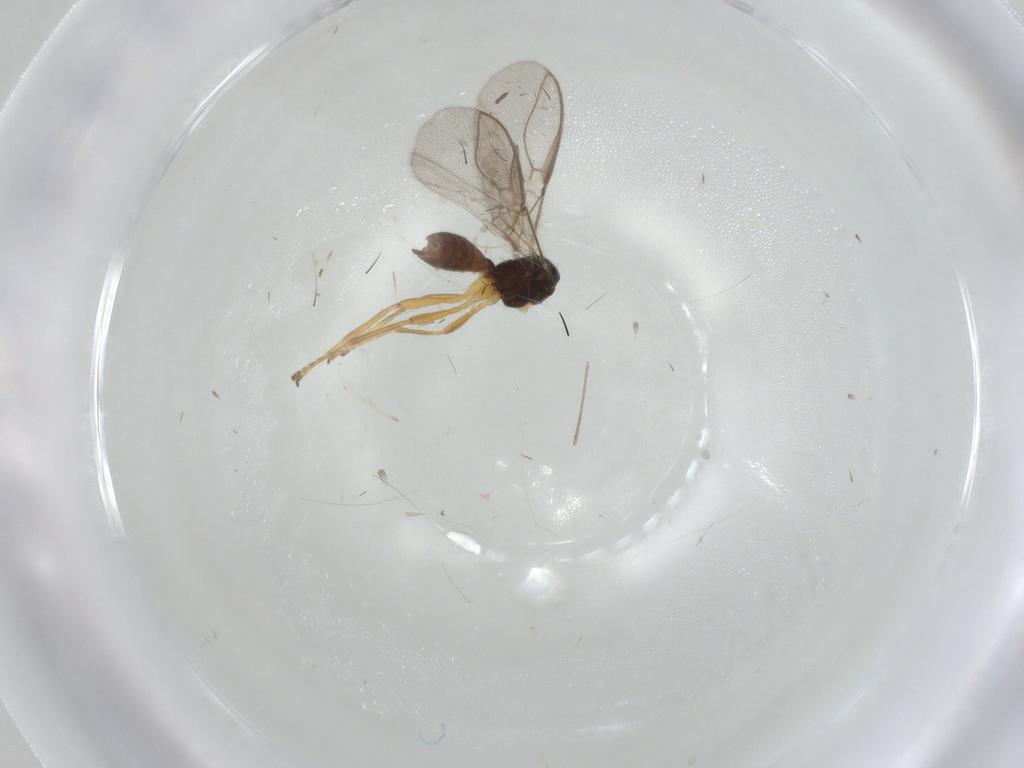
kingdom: Animalia
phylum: Arthropoda
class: Insecta
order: Hymenoptera
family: Braconidae
